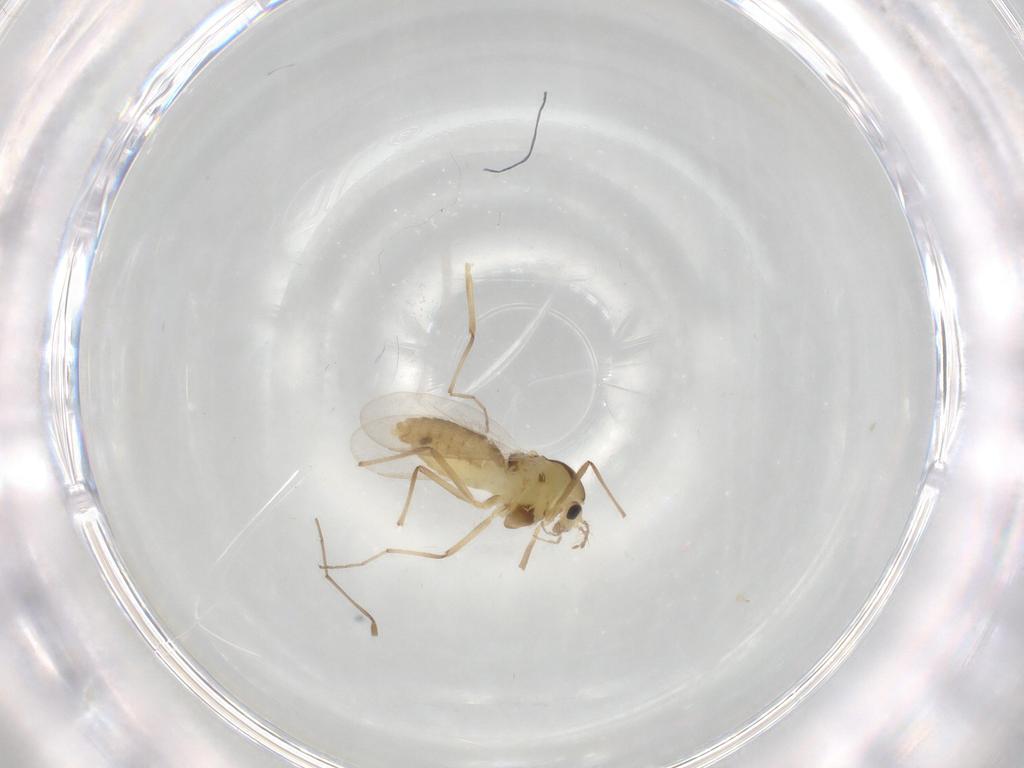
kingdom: Animalia
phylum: Arthropoda
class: Insecta
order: Diptera
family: Chironomidae
